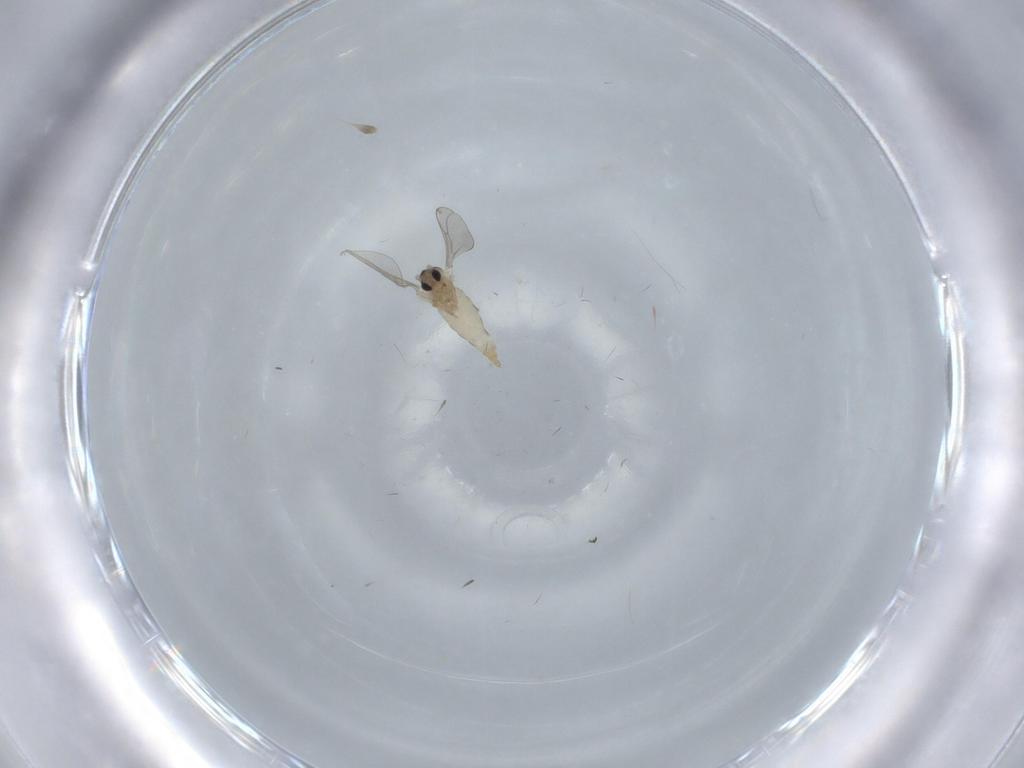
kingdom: Animalia
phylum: Arthropoda
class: Insecta
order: Diptera
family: Cecidomyiidae
